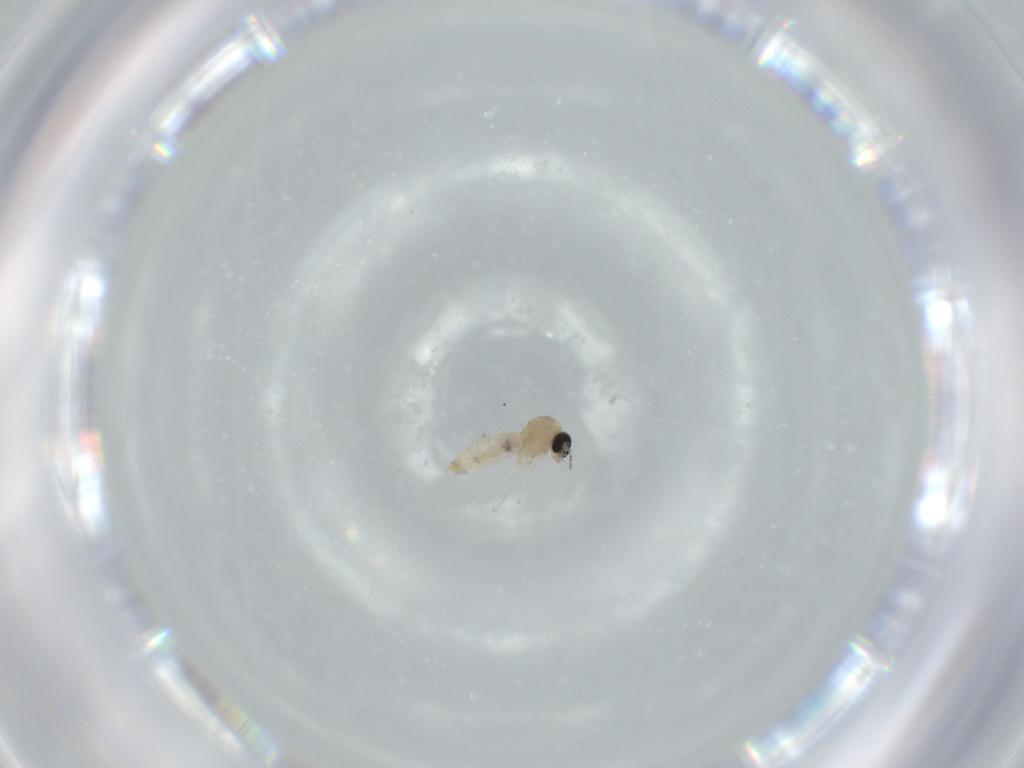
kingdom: Animalia
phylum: Arthropoda
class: Insecta
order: Diptera
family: Cecidomyiidae
